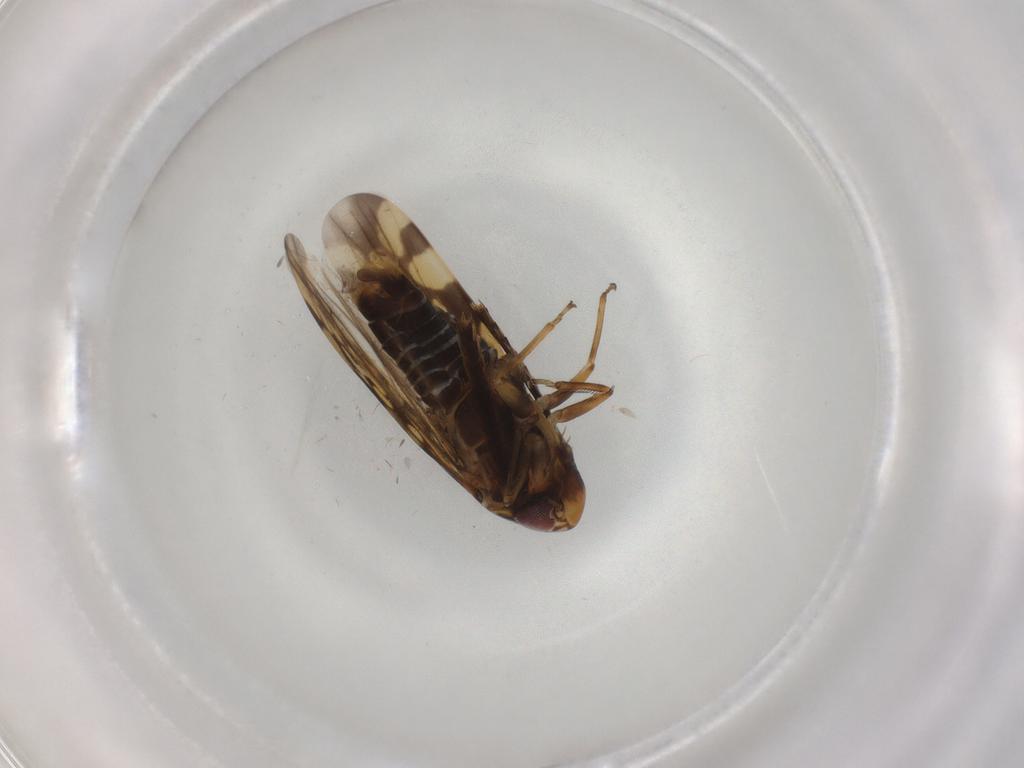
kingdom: Animalia
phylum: Arthropoda
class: Insecta
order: Hemiptera
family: Cicadellidae
